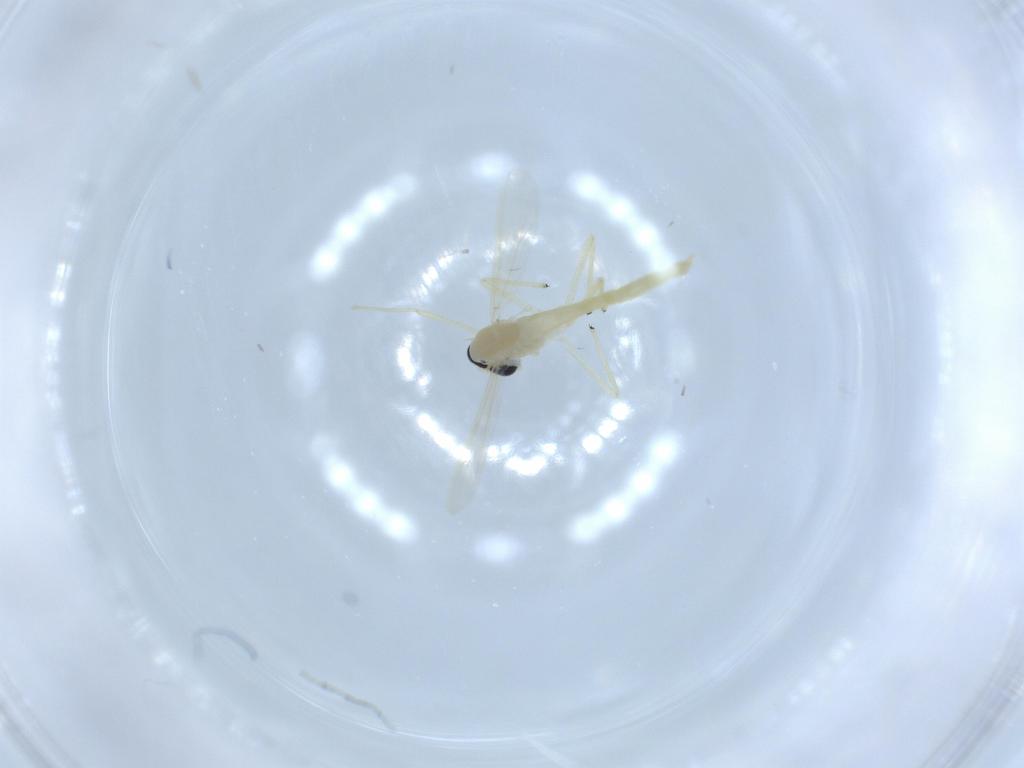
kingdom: Animalia
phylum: Arthropoda
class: Insecta
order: Diptera
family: Chironomidae
